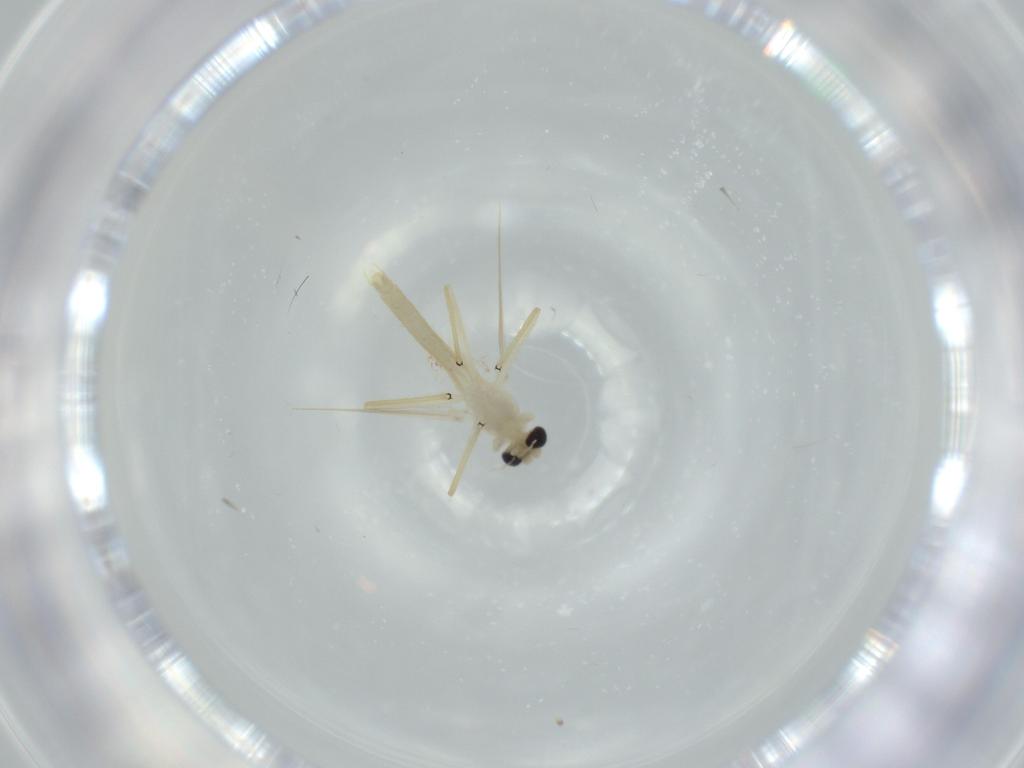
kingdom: Animalia
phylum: Arthropoda
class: Insecta
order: Diptera
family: Chironomidae
